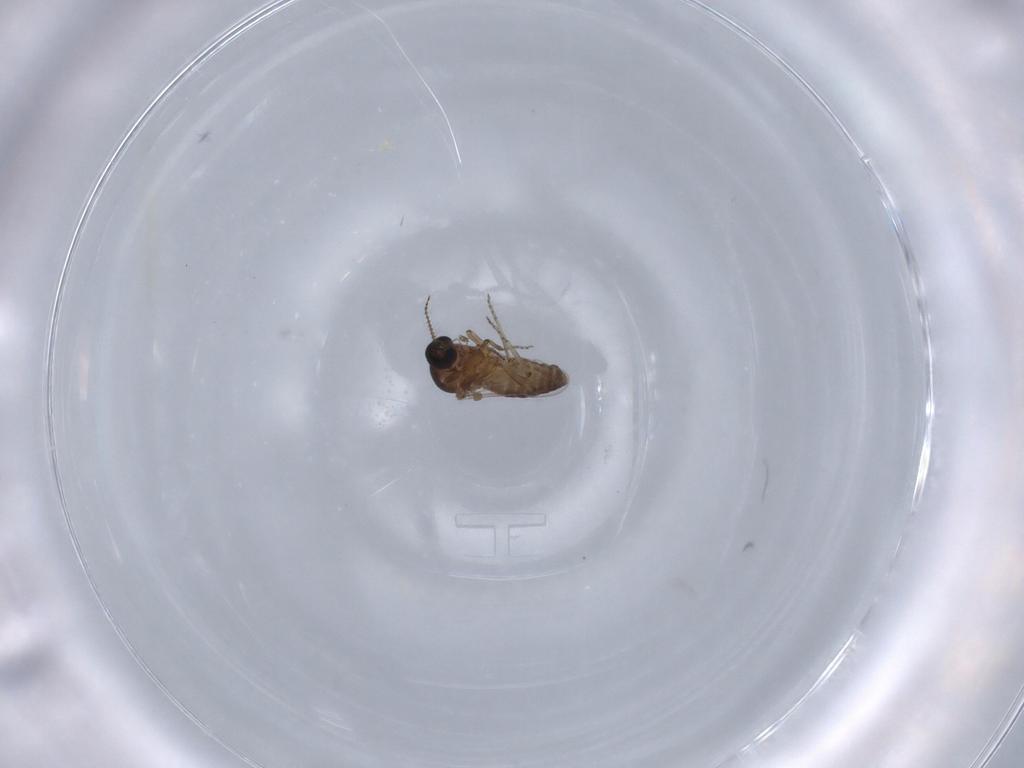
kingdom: Animalia
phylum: Arthropoda
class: Insecta
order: Diptera
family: Ceratopogonidae
